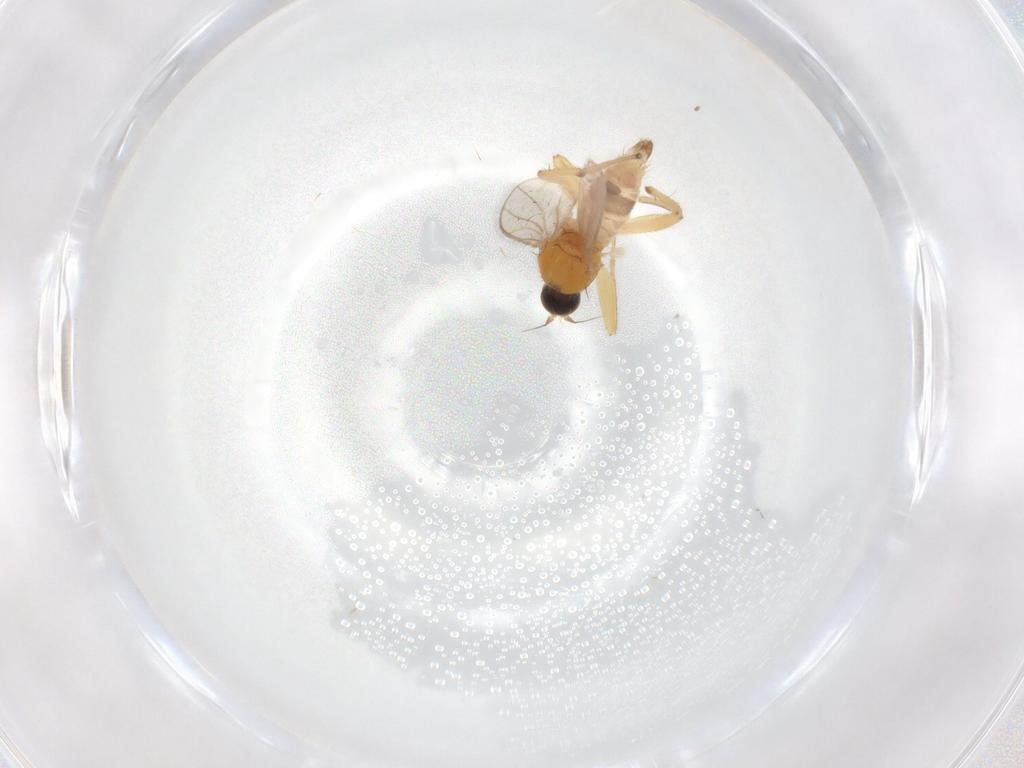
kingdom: Animalia
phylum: Arthropoda
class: Insecta
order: Diptera
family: Hybotidae
